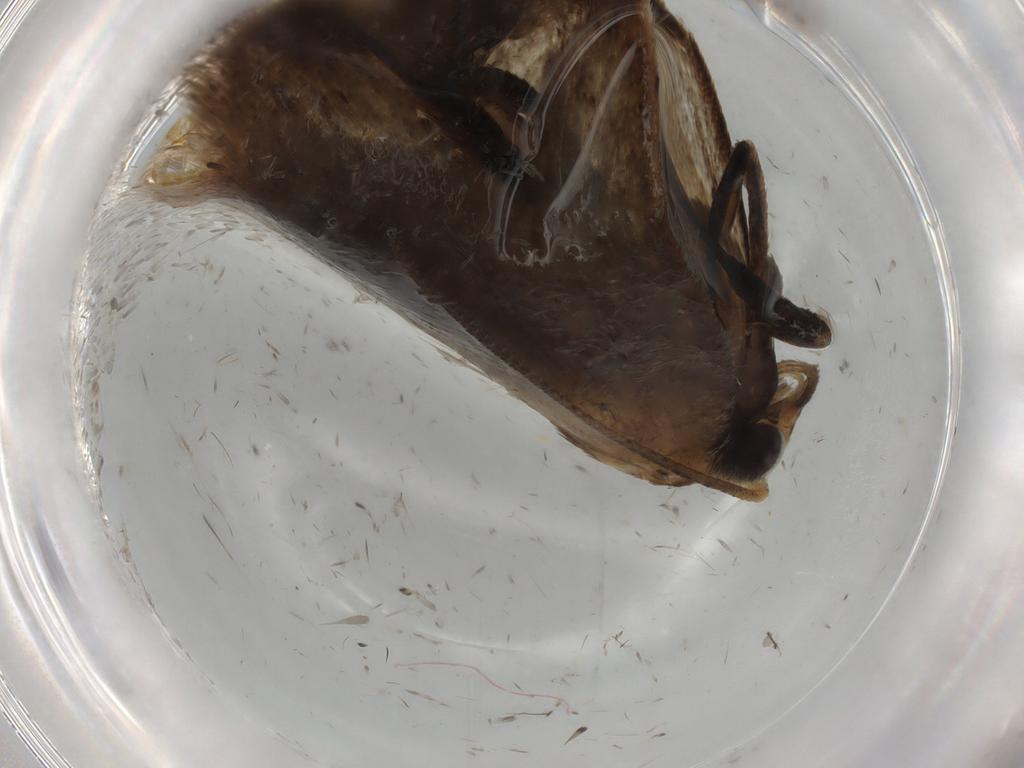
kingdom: Animalia
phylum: Arthropoda
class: Insecta
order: Lepidoptera
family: Oecophoridae
